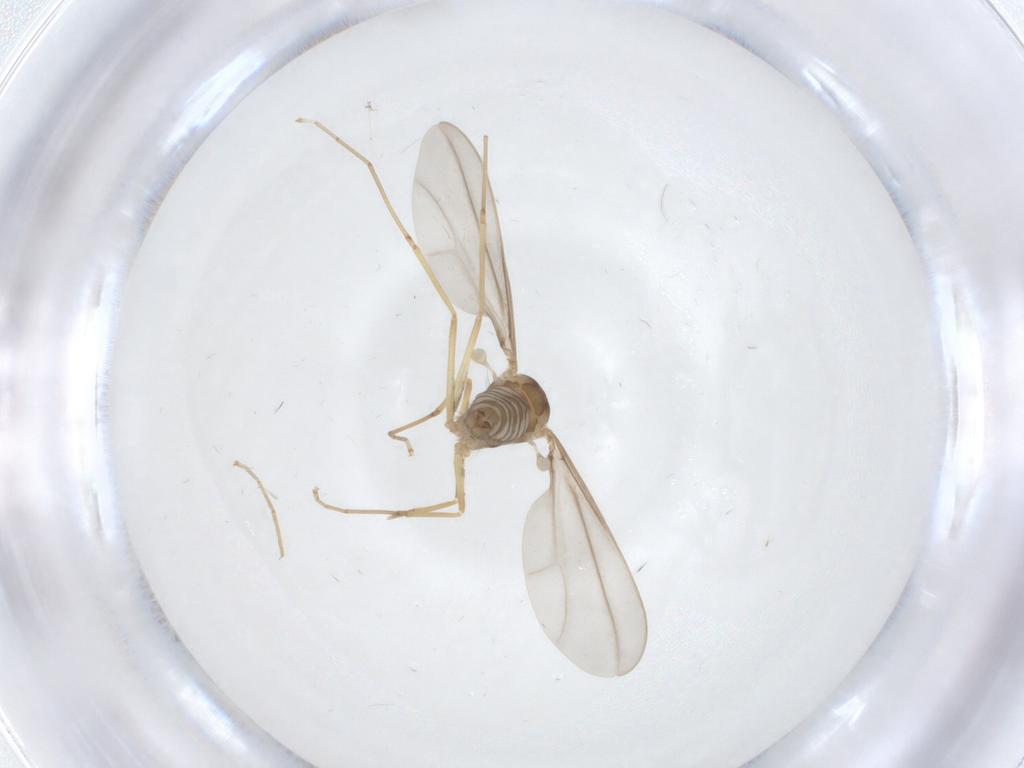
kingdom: Animalia
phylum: Arthropoda
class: Insecta
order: Diptera
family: Cecidomyiidae
